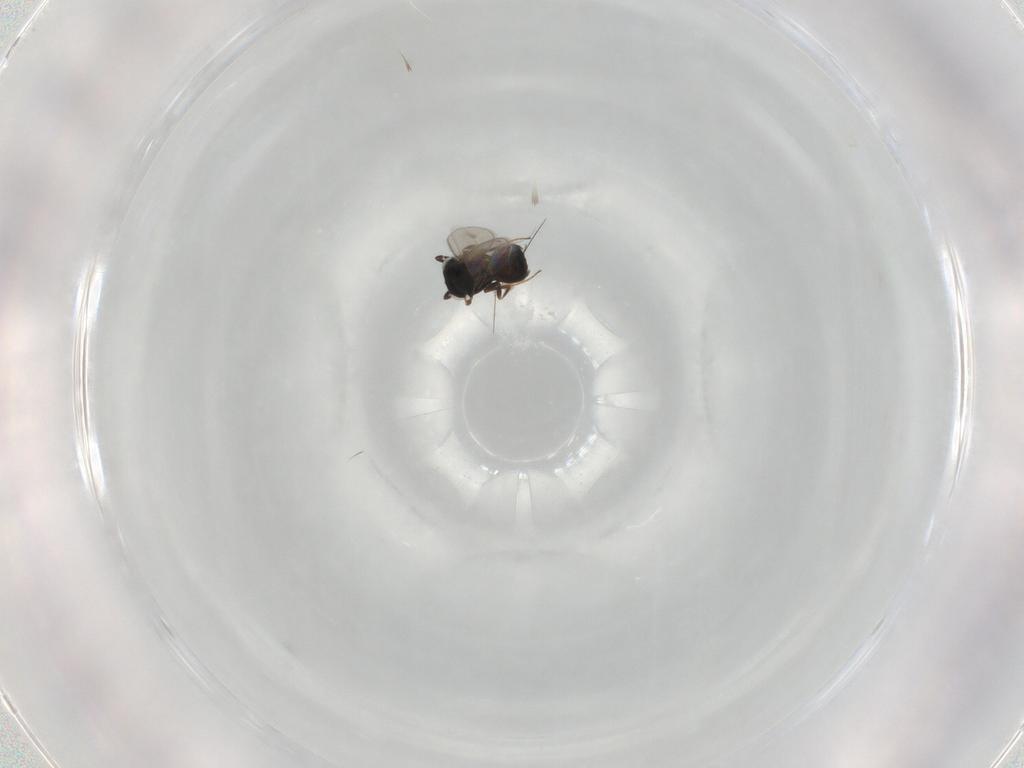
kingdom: Animalia
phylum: Arthropoda
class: Insecta
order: Hymenoptera
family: Scelionidae
